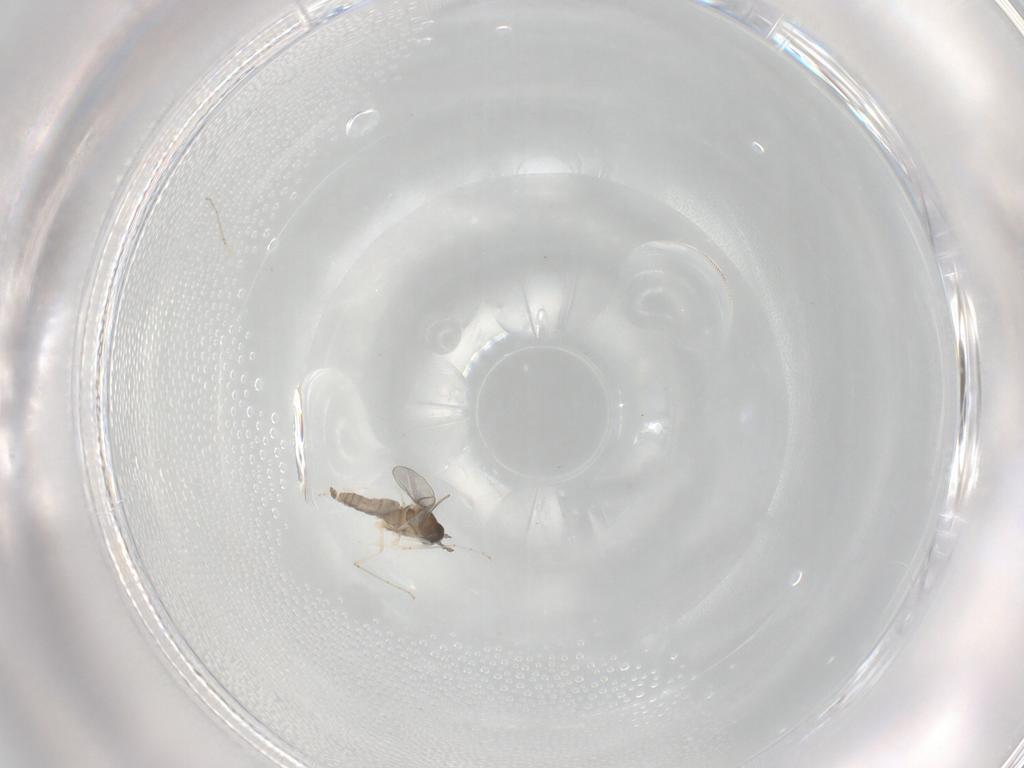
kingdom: Animalia
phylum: Arthropoda
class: Insecta
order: Diptera
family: Cecidomyiidae
